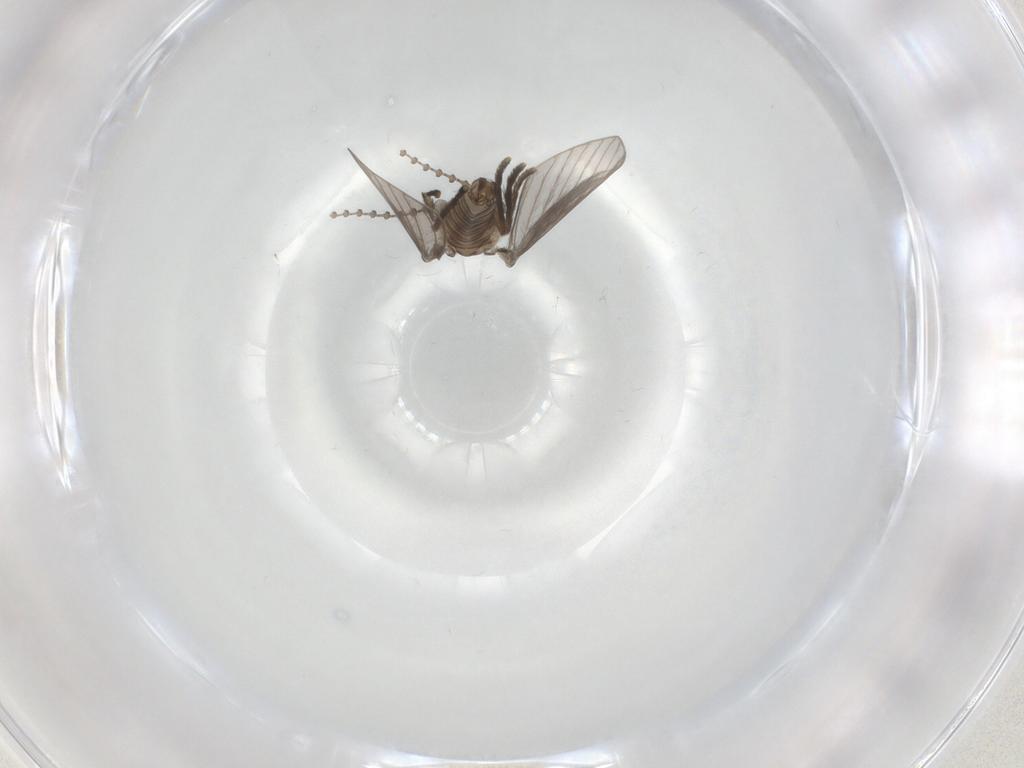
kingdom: Animalia
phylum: Arthropoda
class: Insecta
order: Diptera
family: Psychodidae
